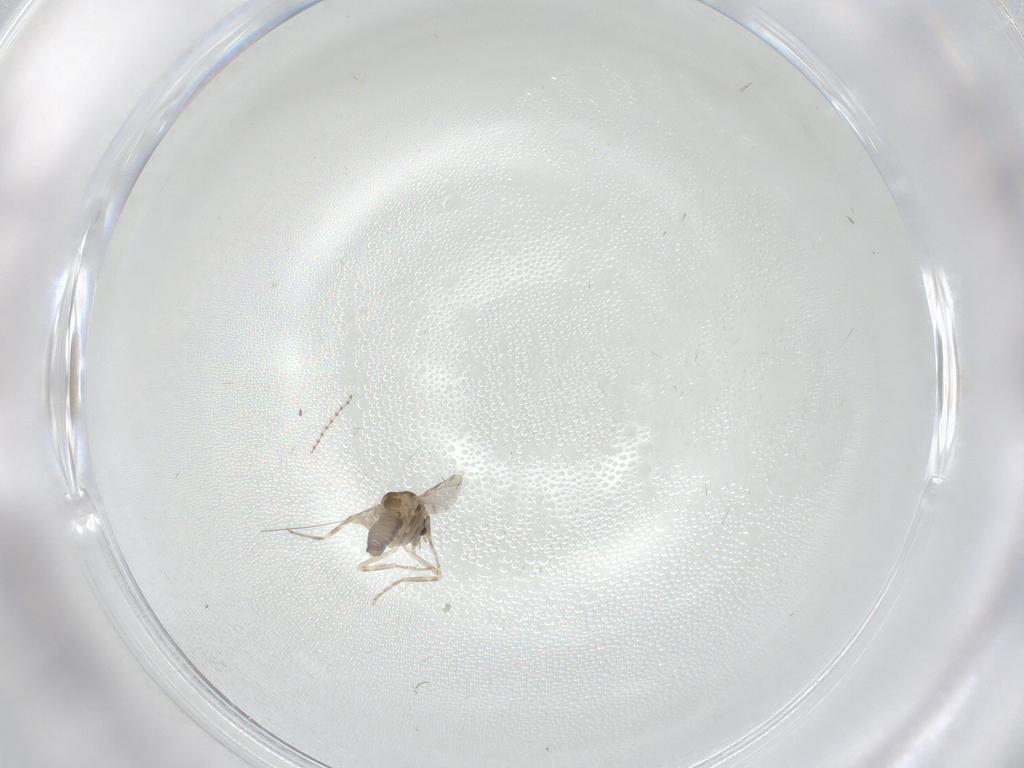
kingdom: Animalia
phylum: Arthropoda
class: Insecta
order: Diptera
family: Ceratopogonidae
